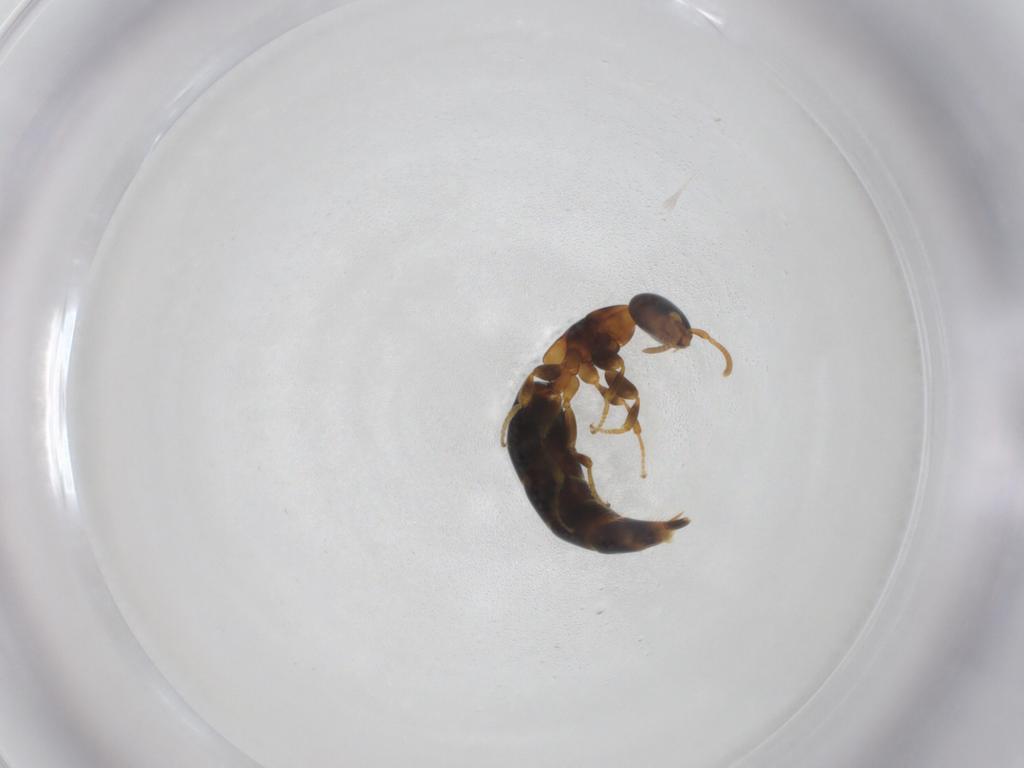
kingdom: Animalia
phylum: Arthropoda
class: Insecta
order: Hymenoptera
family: Bethylidae
